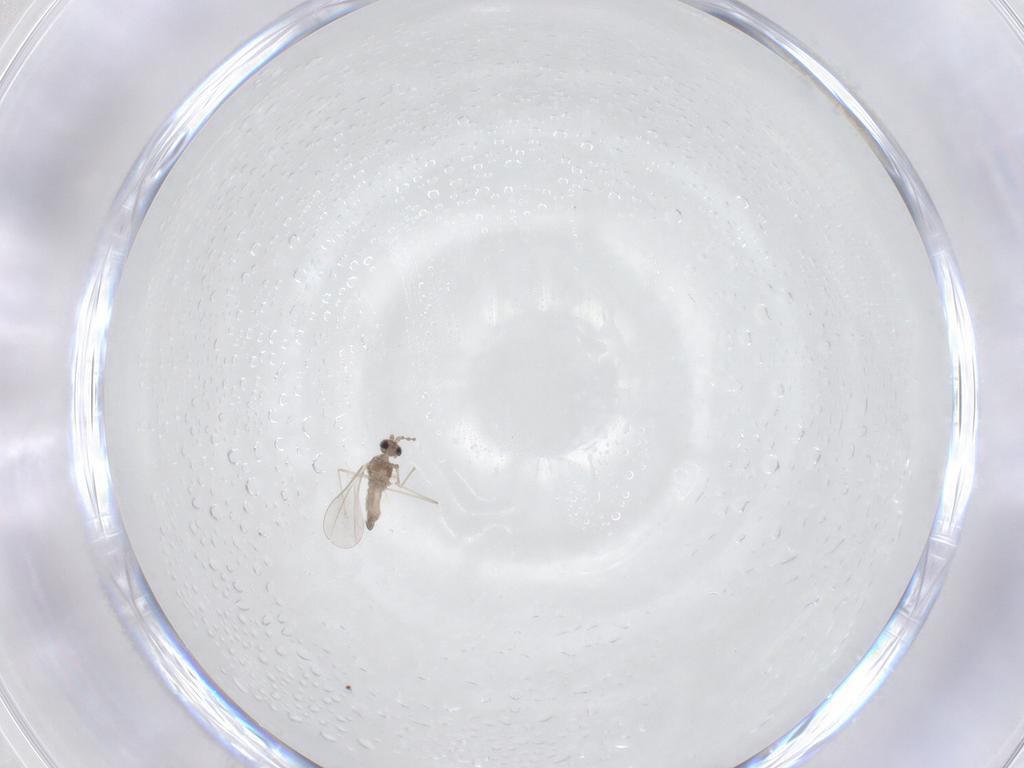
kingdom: Animalia
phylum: Arthropoda
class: Insecta
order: Diptera
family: Cecidomyiidae
